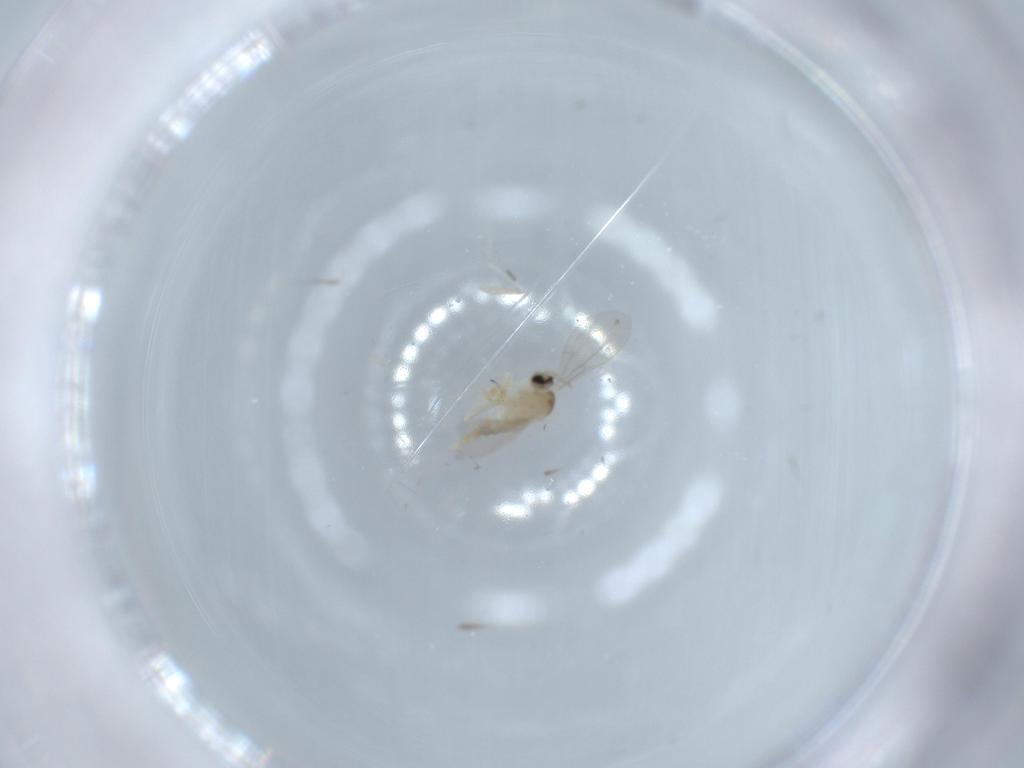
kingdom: Animalia
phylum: Arthropoda
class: Insecta
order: Diptera
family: Cecidomyiidae
